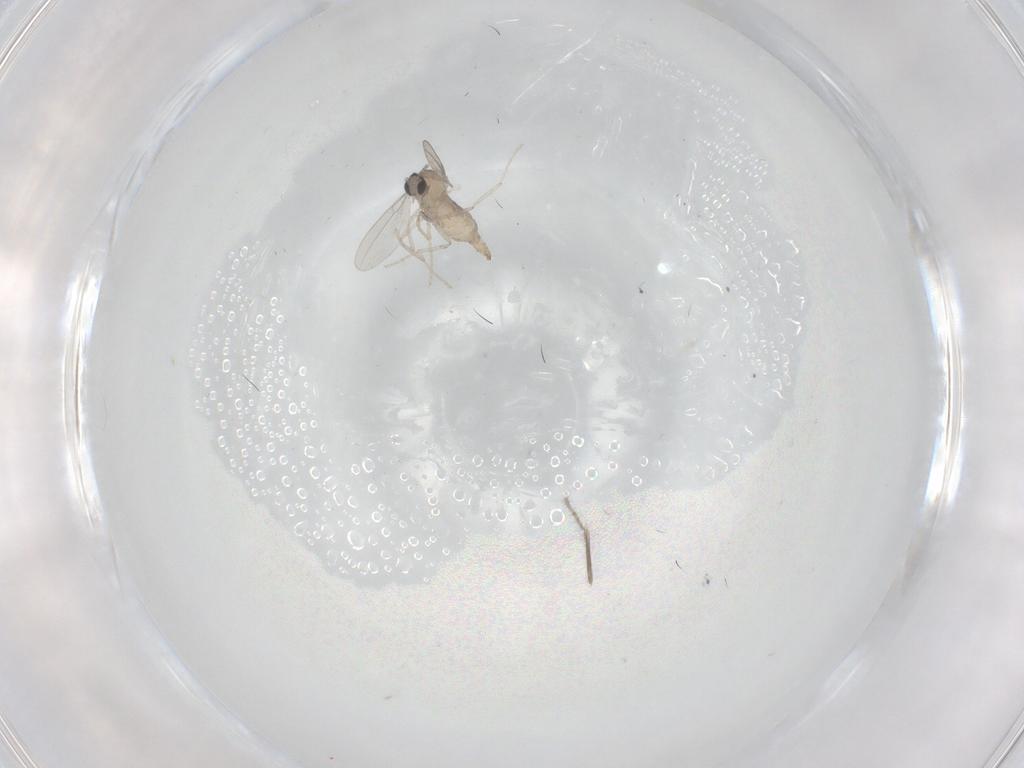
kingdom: Animalia
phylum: Arthropoda
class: Insecta
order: Diptera
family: Ceratopogonidae
